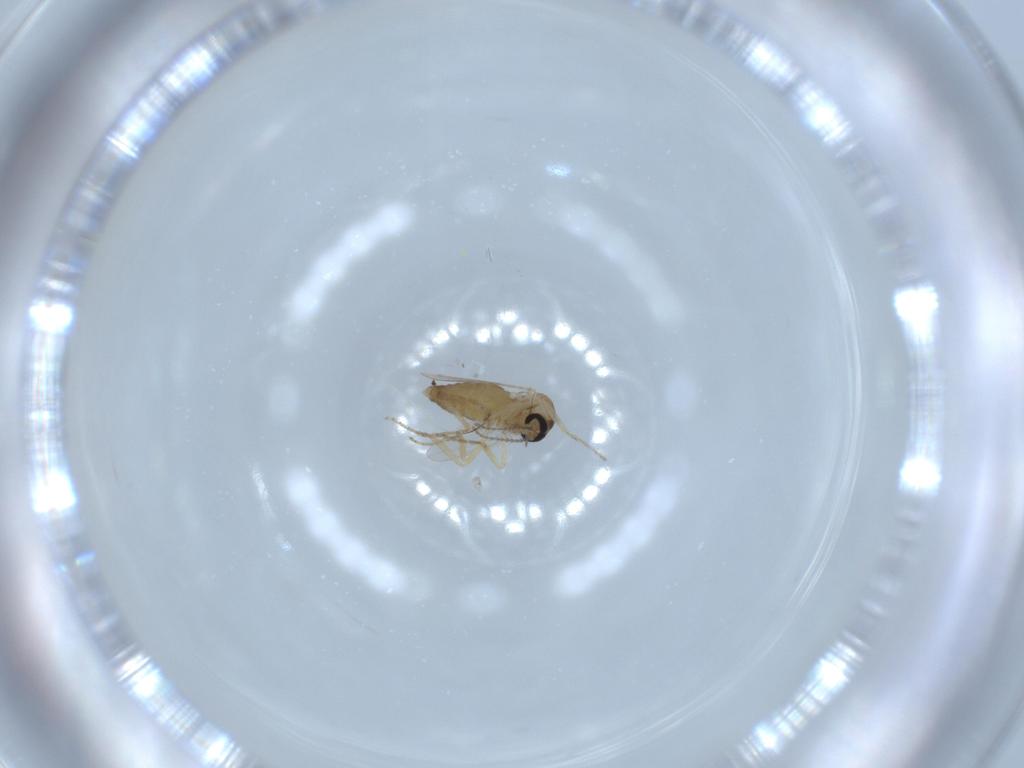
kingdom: Animalia
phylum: Arthropoda
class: Insecta
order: Diptera
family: Ceratopogonidae
